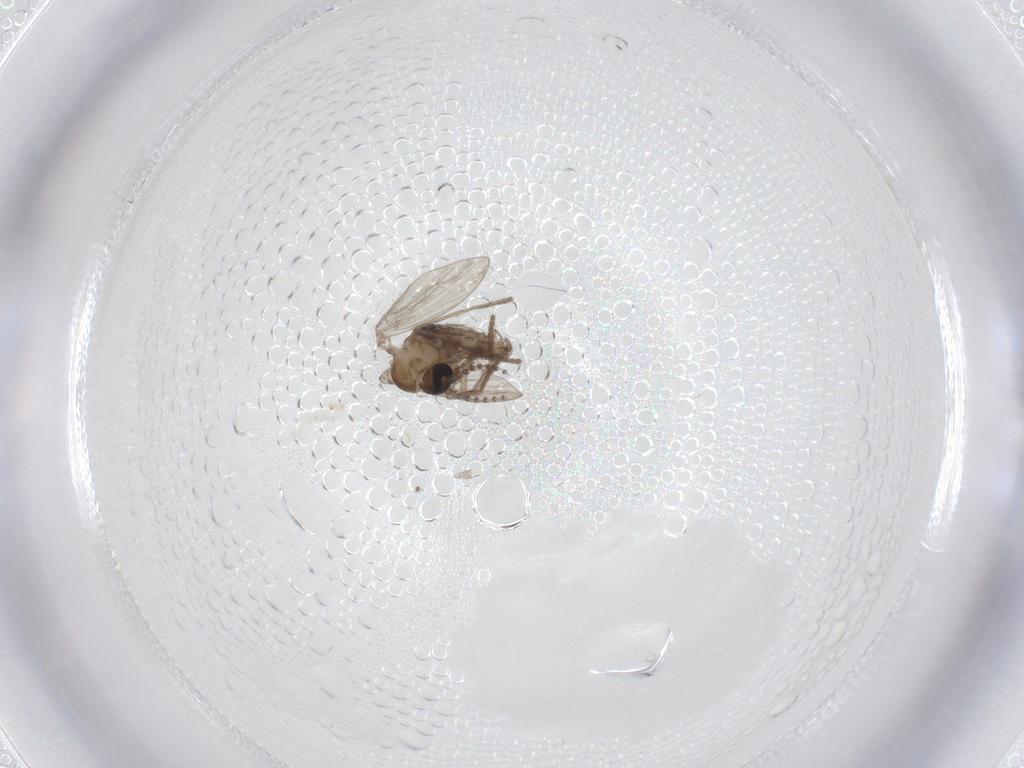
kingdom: Animalia
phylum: Arthropoda
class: Insecta
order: Diptera
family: Psychodidae
